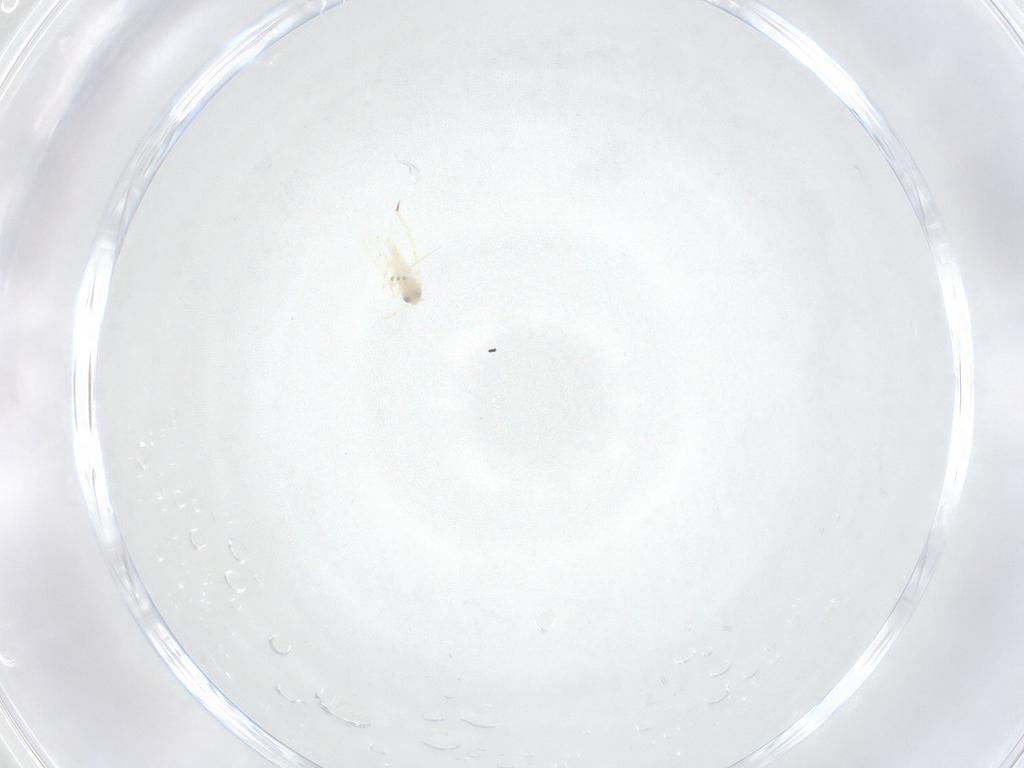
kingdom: Animalia
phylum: Arthropoda
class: Insecta
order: Hemiptera
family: Aleyrodidae
